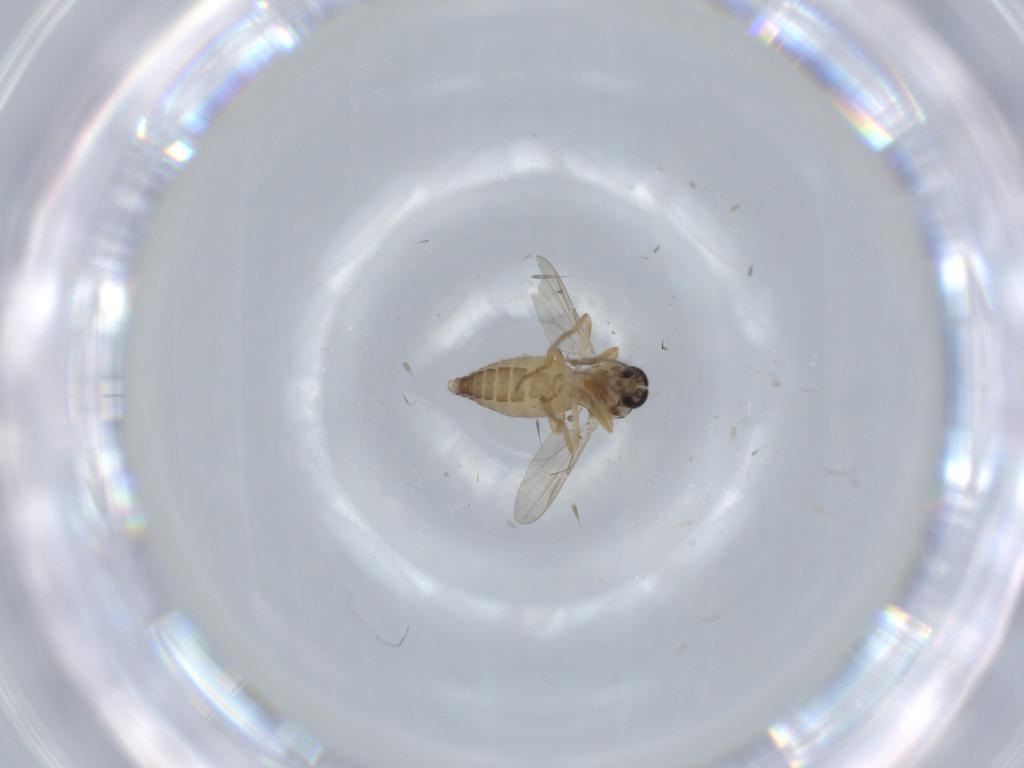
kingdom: Animalia
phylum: Arthropoda
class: Insecta
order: Diptera
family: Ceratopogonidae
